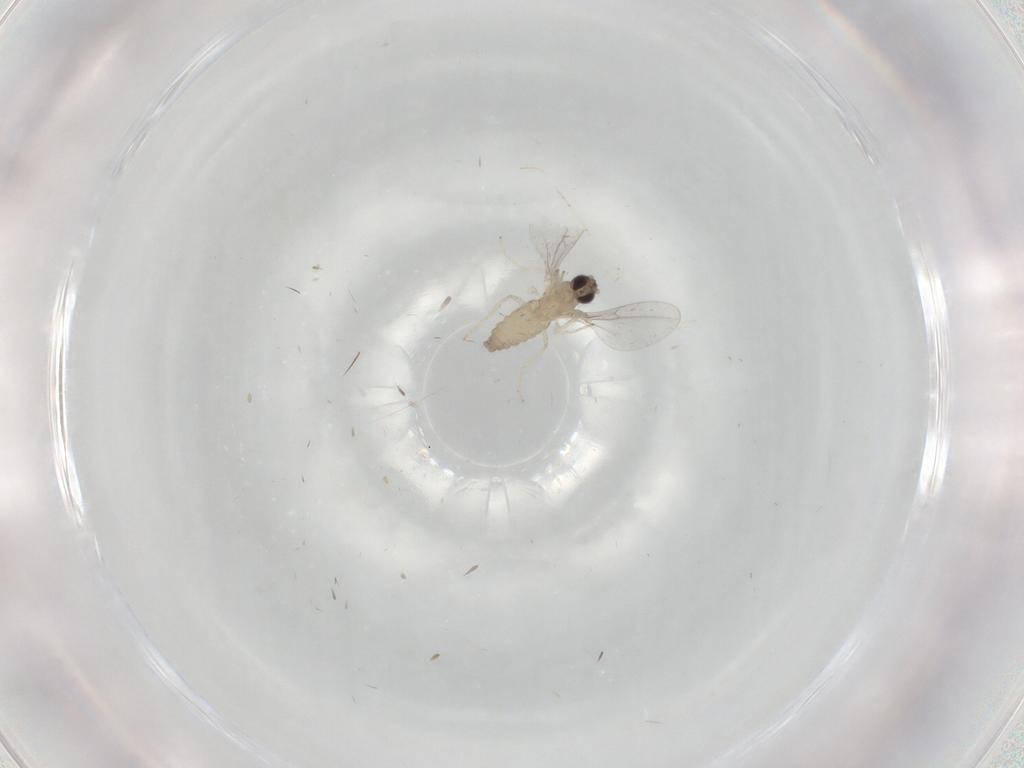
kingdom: Animalia
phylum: Arthropoda
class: Insecta
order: Diptera
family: Cecidomyiidae
